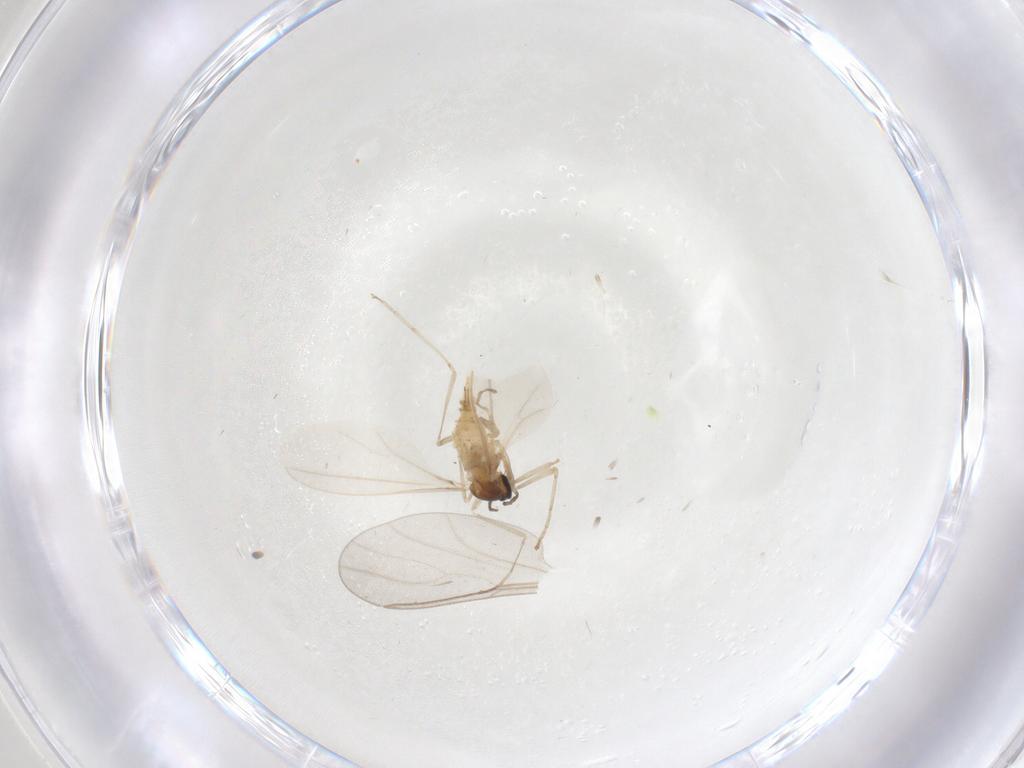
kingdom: Animalia
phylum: Arthropoda
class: Insecta
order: Diptera
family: Cecidomyiidae
